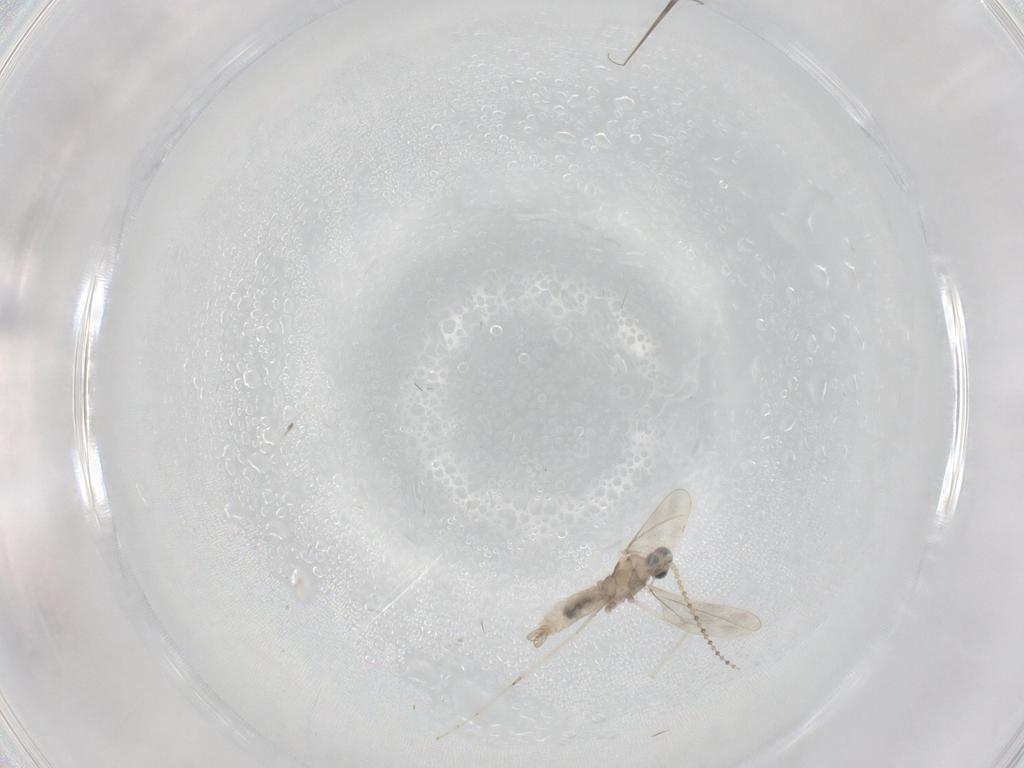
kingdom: Animalia
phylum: Arthropoda
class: Insecta
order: Diptera
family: Cecidomyiidae
